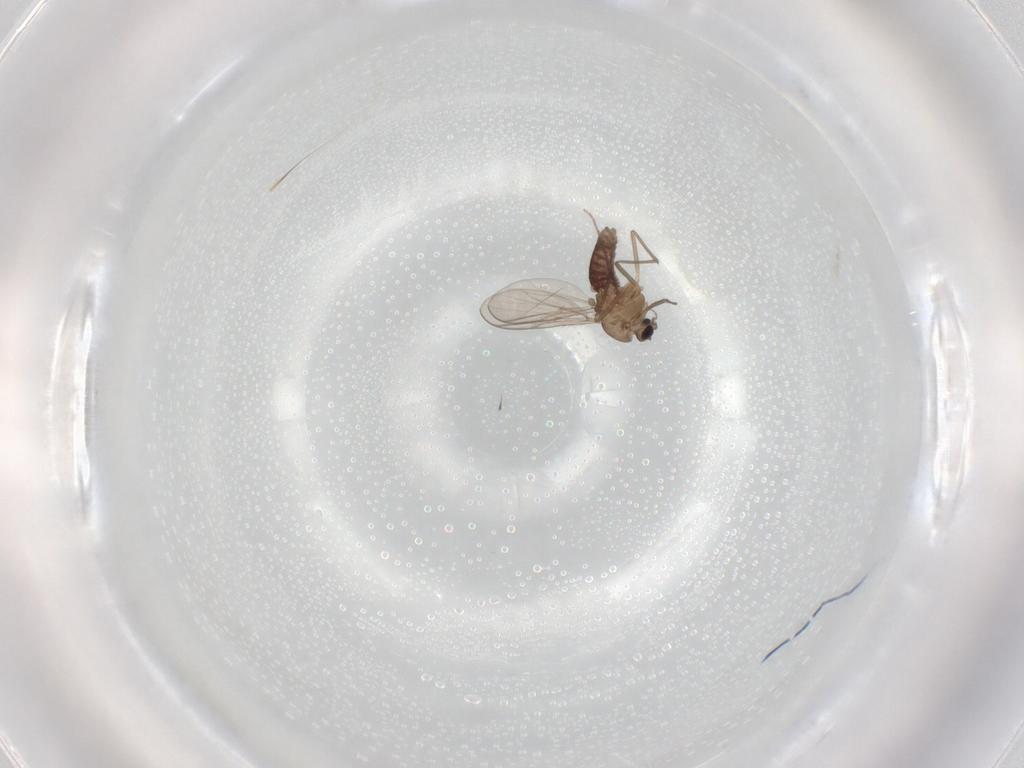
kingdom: Animalia
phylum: Arthropoda
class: Insecta
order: Diptera
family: Chironomidae
